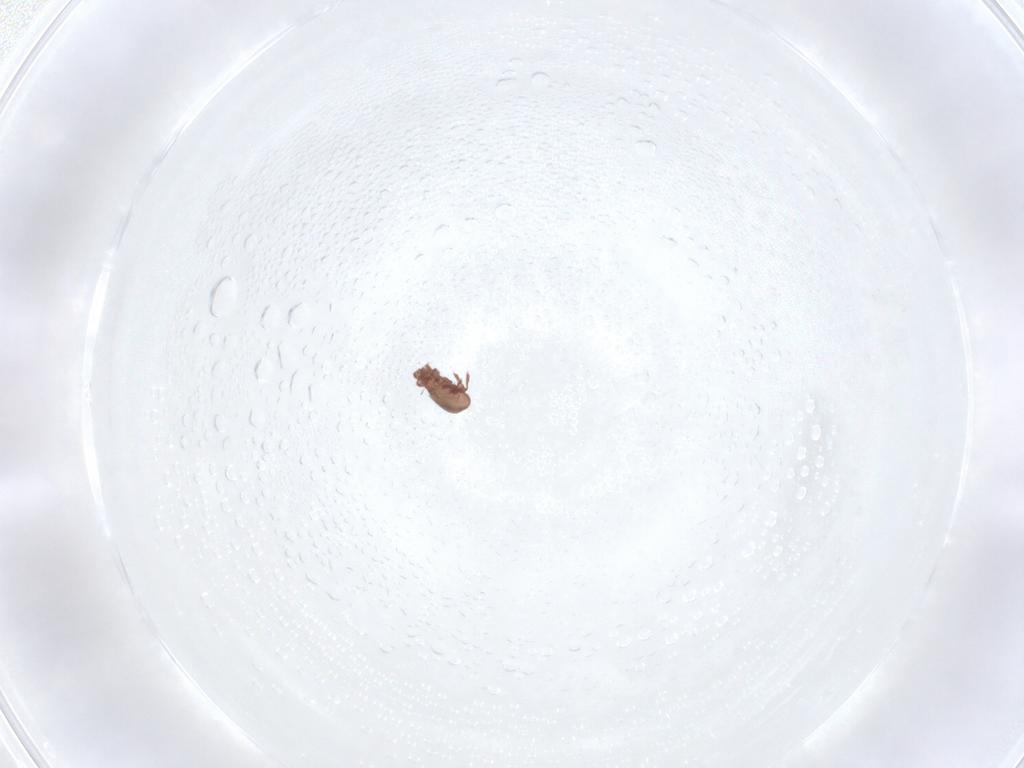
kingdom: Animalia
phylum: Arthropoda
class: Arachnida
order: Sarcoptiformes
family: Eremaeidae
